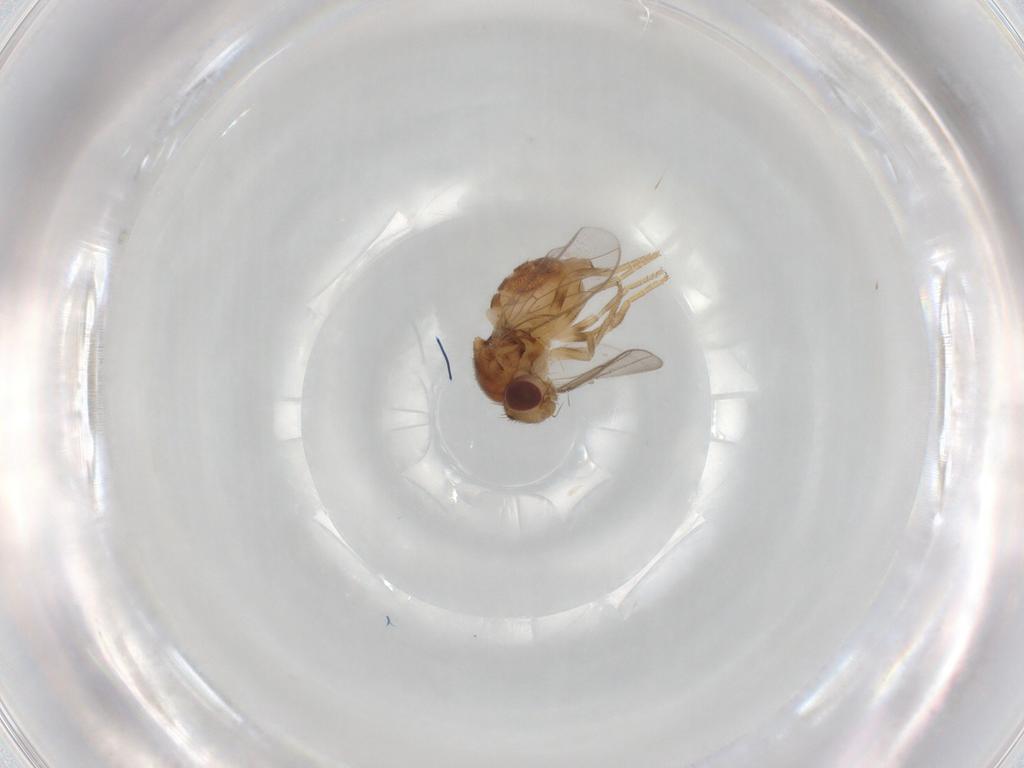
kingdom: Animalia
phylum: Arthropoda
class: Insecta
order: Diptera
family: Chloropidae
